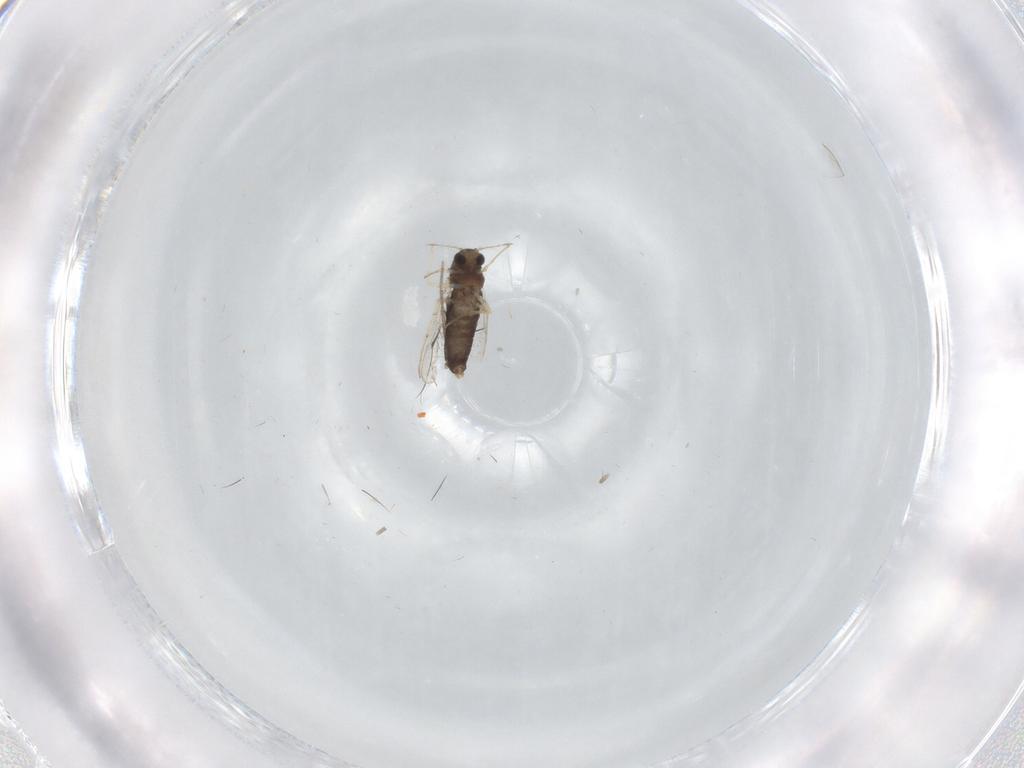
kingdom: Animalia
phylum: Arthropoda
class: Insecta
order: Diptera
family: Chironomidae
